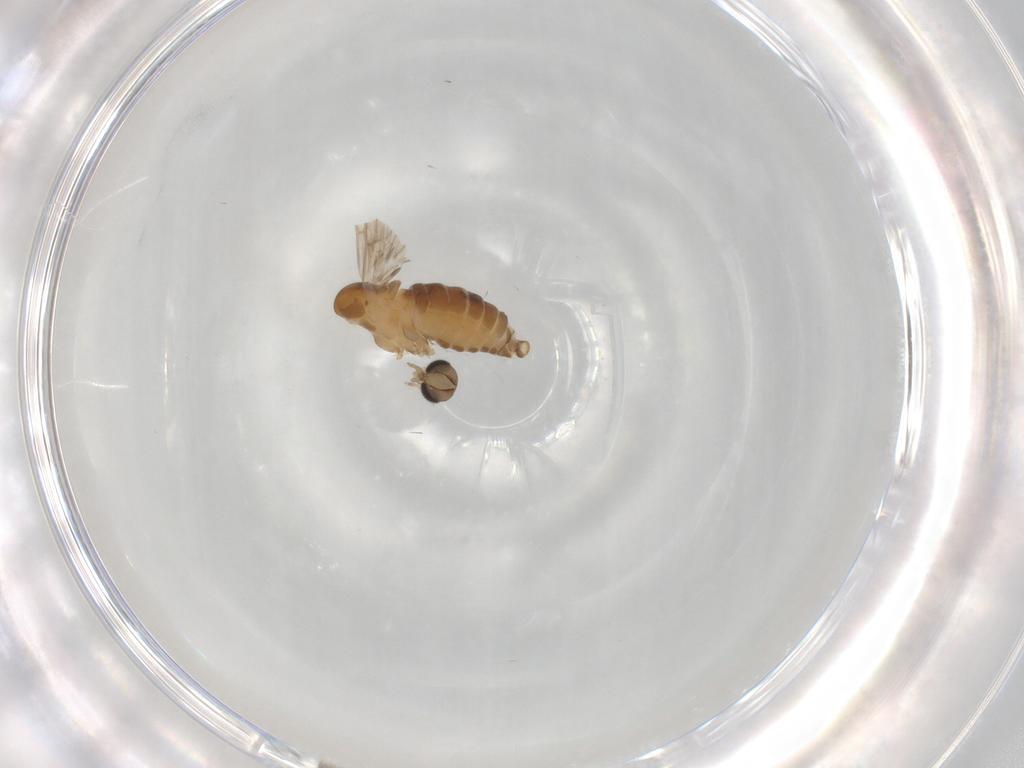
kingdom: Animalia
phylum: Arthropoda
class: Insecta
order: Diptera
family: Psychodidae
